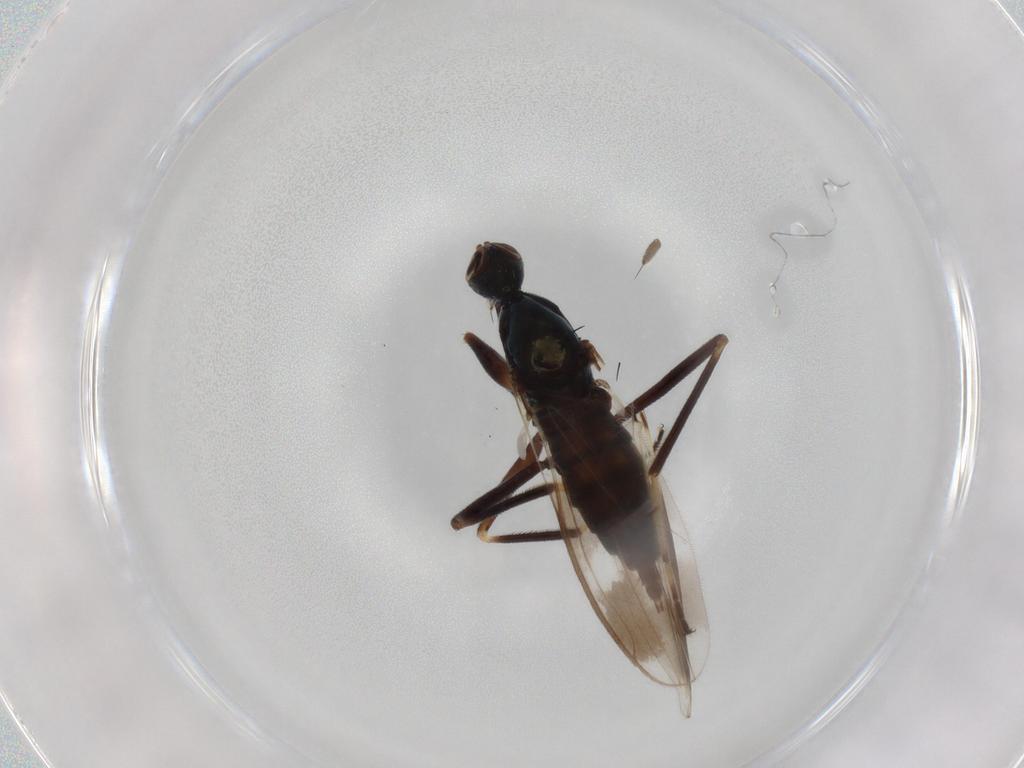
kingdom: Animalia
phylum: Arthropoda
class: Insecta
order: Diptera
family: Hybotidae
